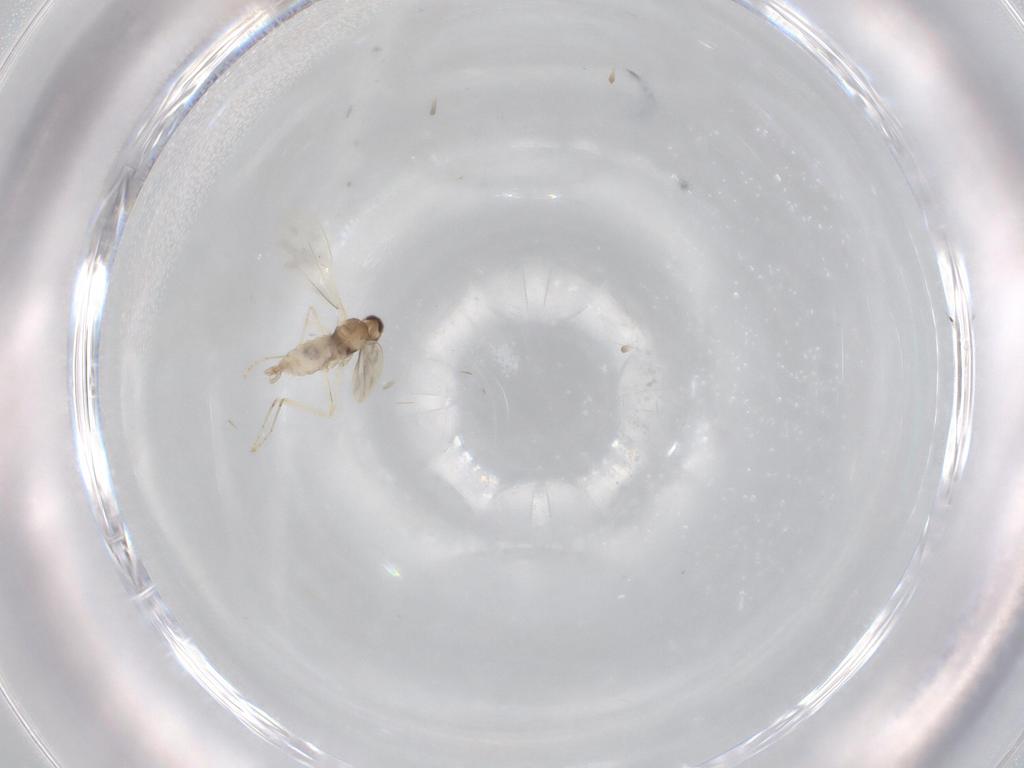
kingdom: Animalia
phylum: Arthropoda
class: Insecta
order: Diptera
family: Cecidomyiidae
